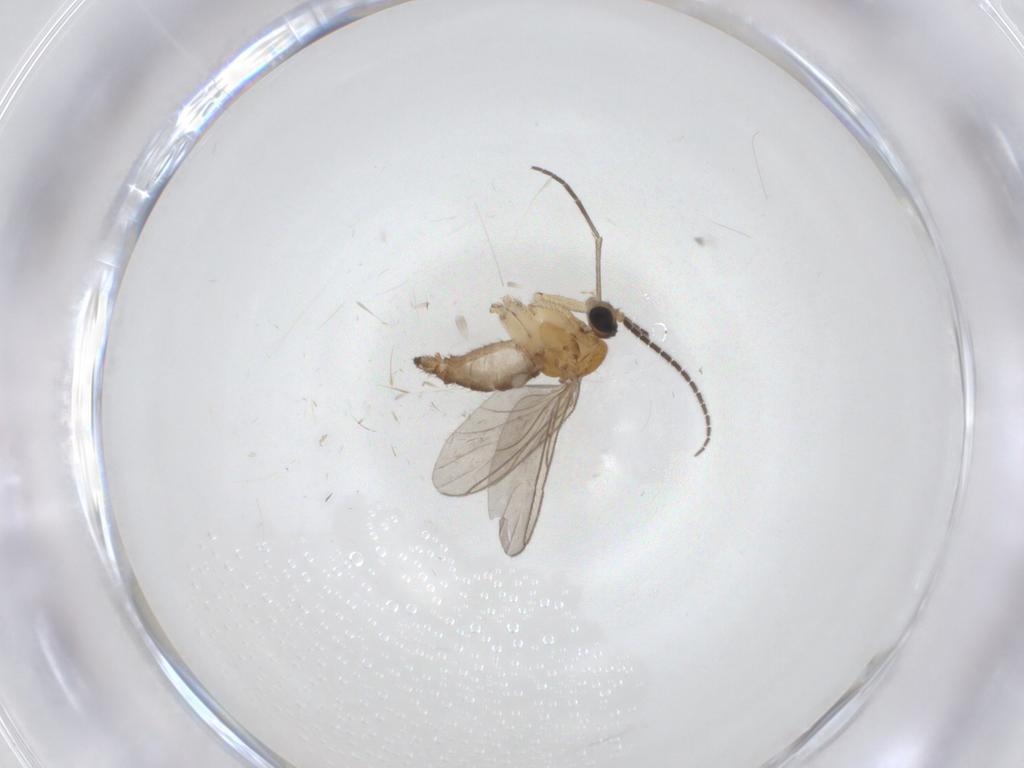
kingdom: Animalia
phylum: Arthropoda
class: Insecta
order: Diptera
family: Sciaridae
